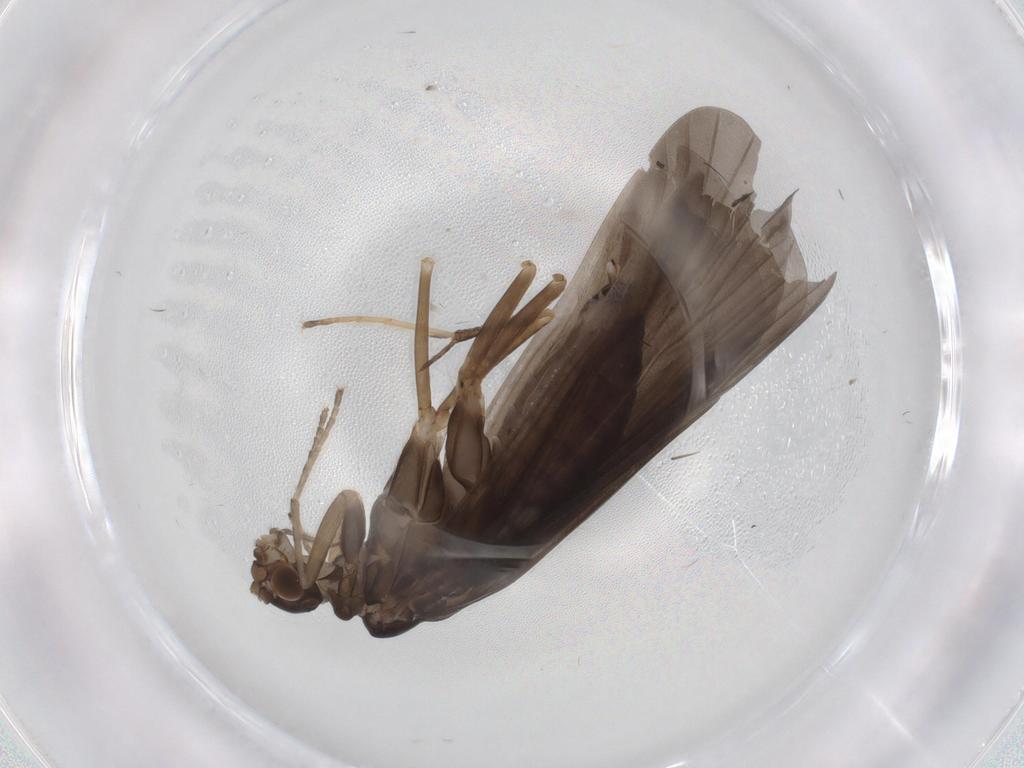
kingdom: Animalia
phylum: Arthropoda
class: Insecta
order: Trichoptera
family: Hydropsychidae
